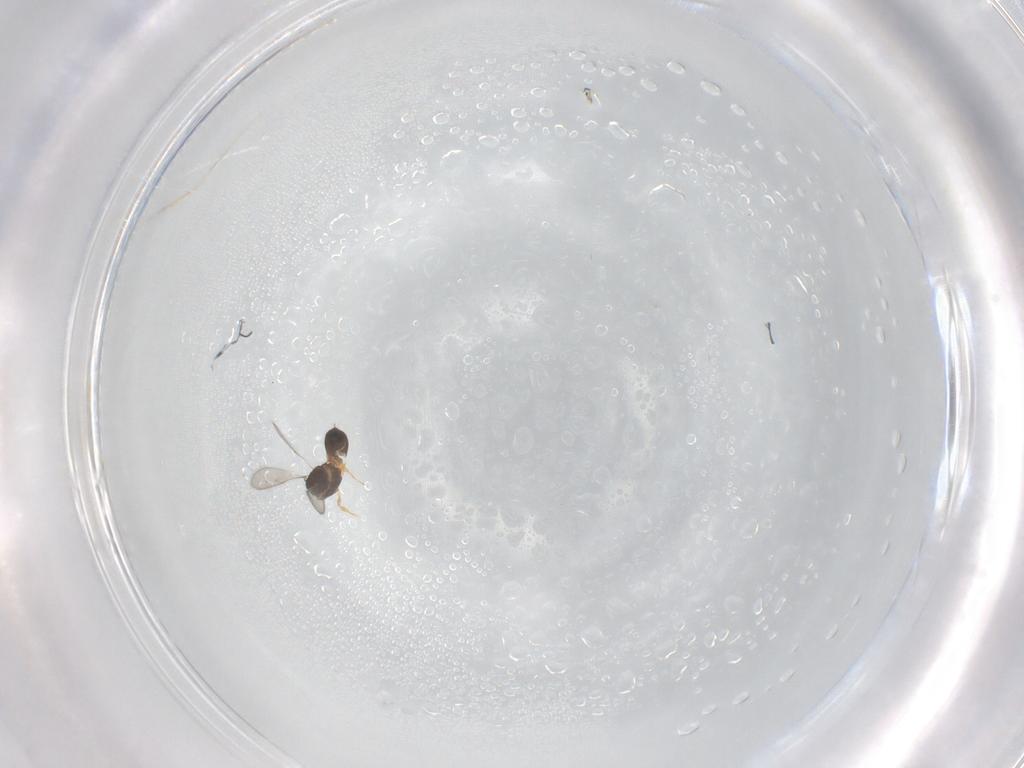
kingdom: Animalia
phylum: Arthropoda
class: Insecta
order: Hymenoptera
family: Scelionidae
